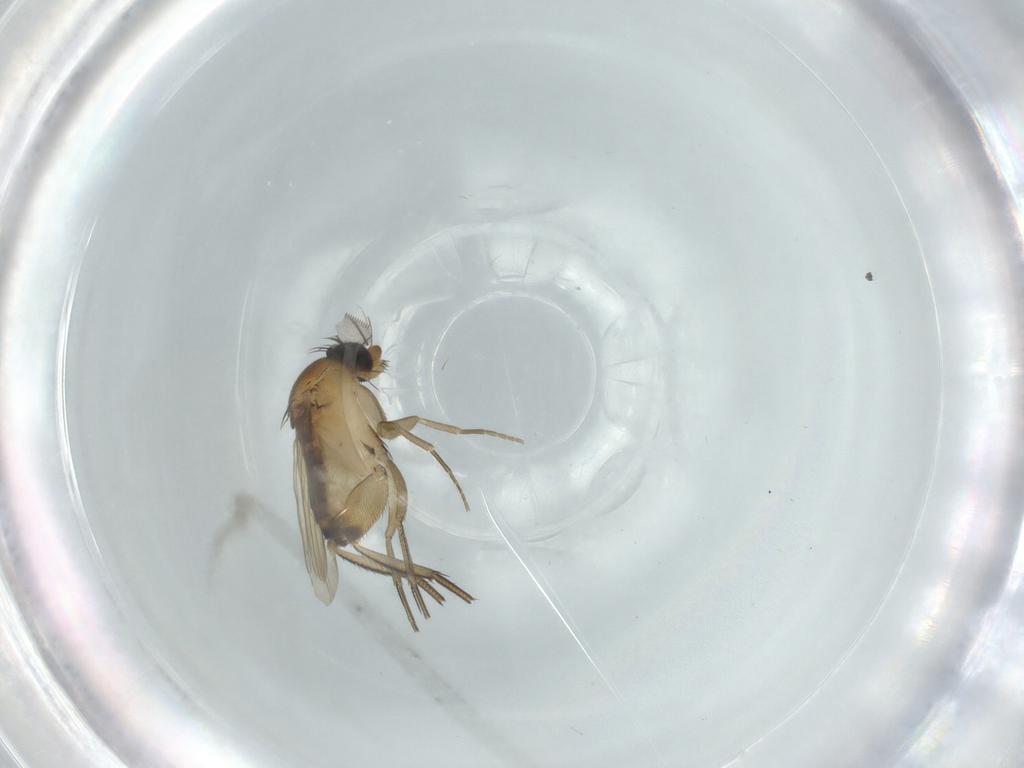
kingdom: Animalia
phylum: Arthropoda
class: Insecta
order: Diptera
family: Phoridae
